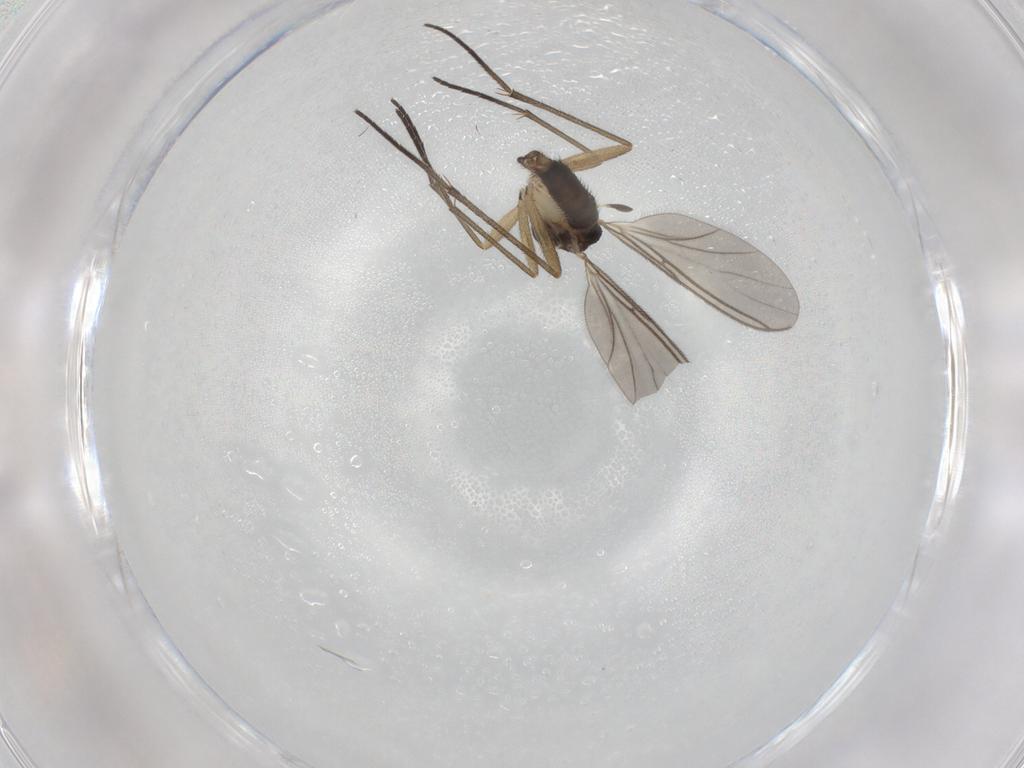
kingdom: Animalia
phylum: Arthropoda
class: Insecta
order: Diptera
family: Sciaridae
